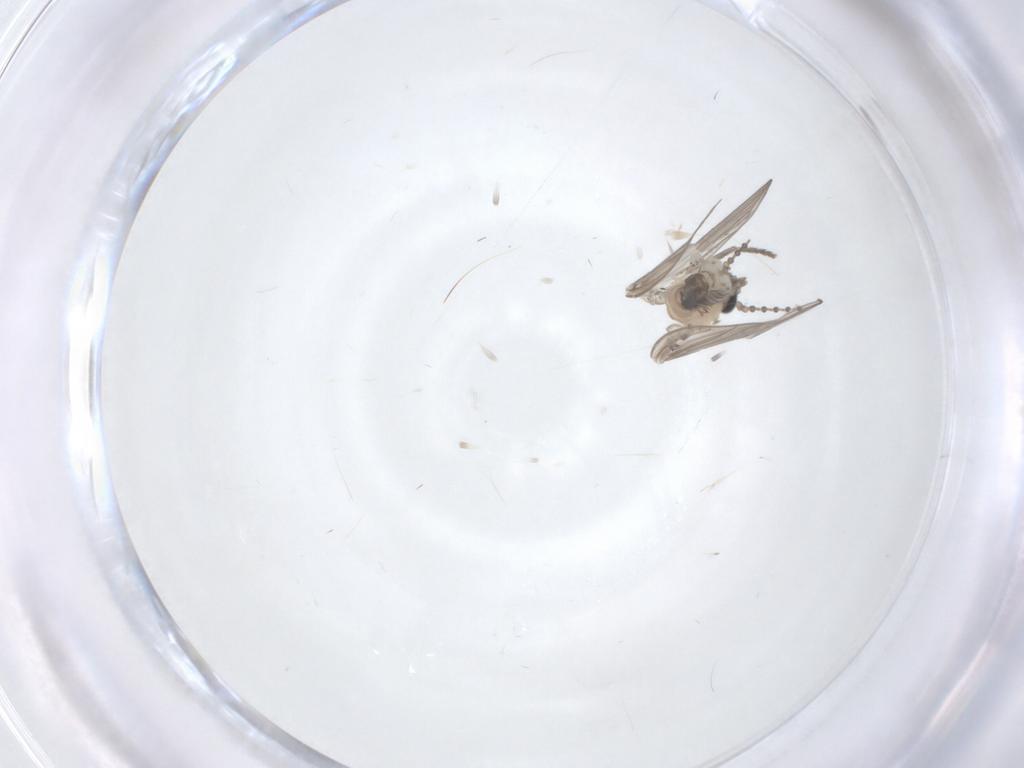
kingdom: Animalia
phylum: Arthropoda
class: Insecta
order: Diptera
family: Psychodidae
